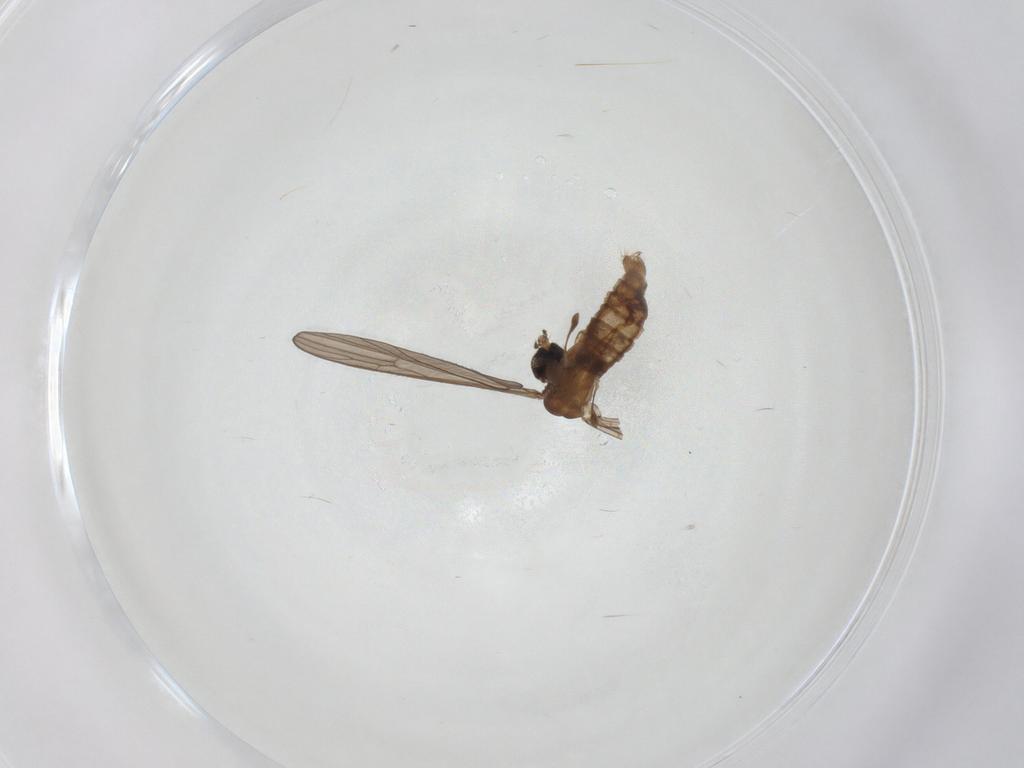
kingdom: Animalia
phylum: Arthropoda
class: Insecta
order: Diptera
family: Limoniidae
